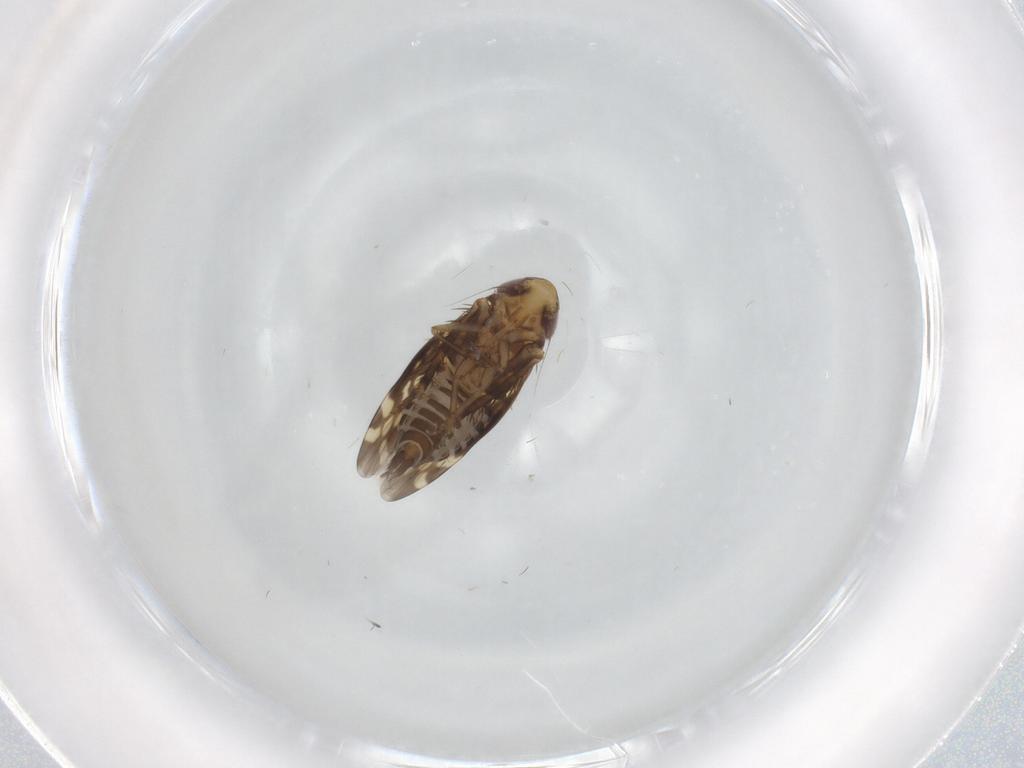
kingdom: Animalia
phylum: Arthropoda
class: Insecta
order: Hemiptera
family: Cicadellidae
